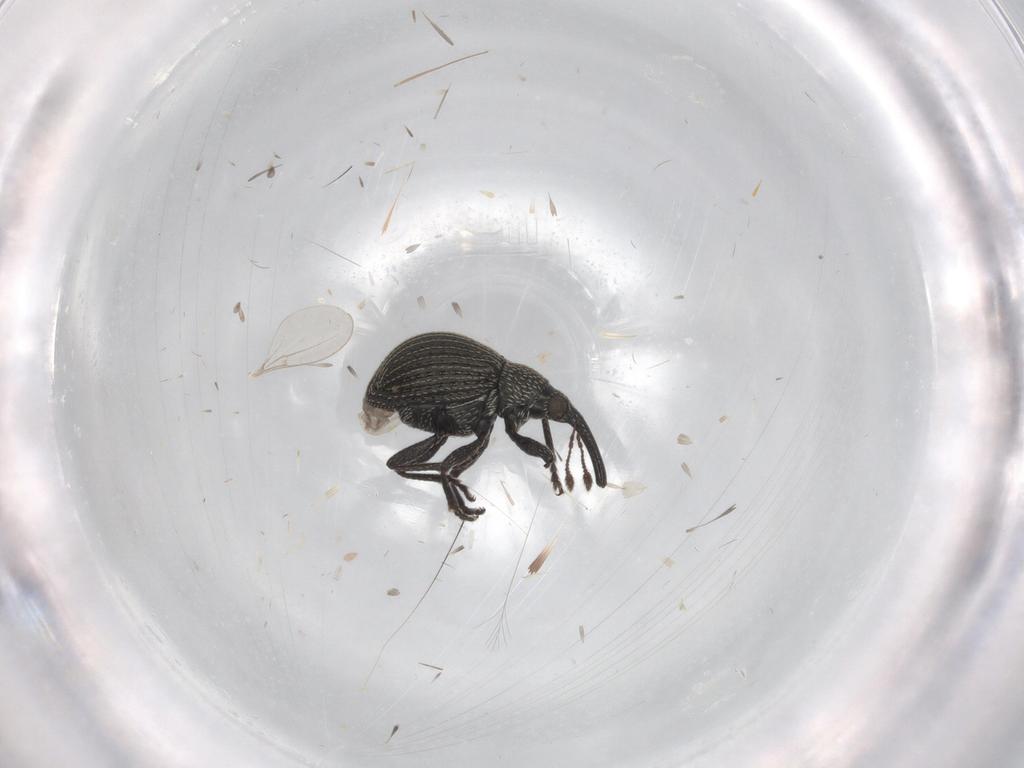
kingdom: Animalia
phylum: Arthropoda
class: Insecta
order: Coleoptera
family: Brentidae
